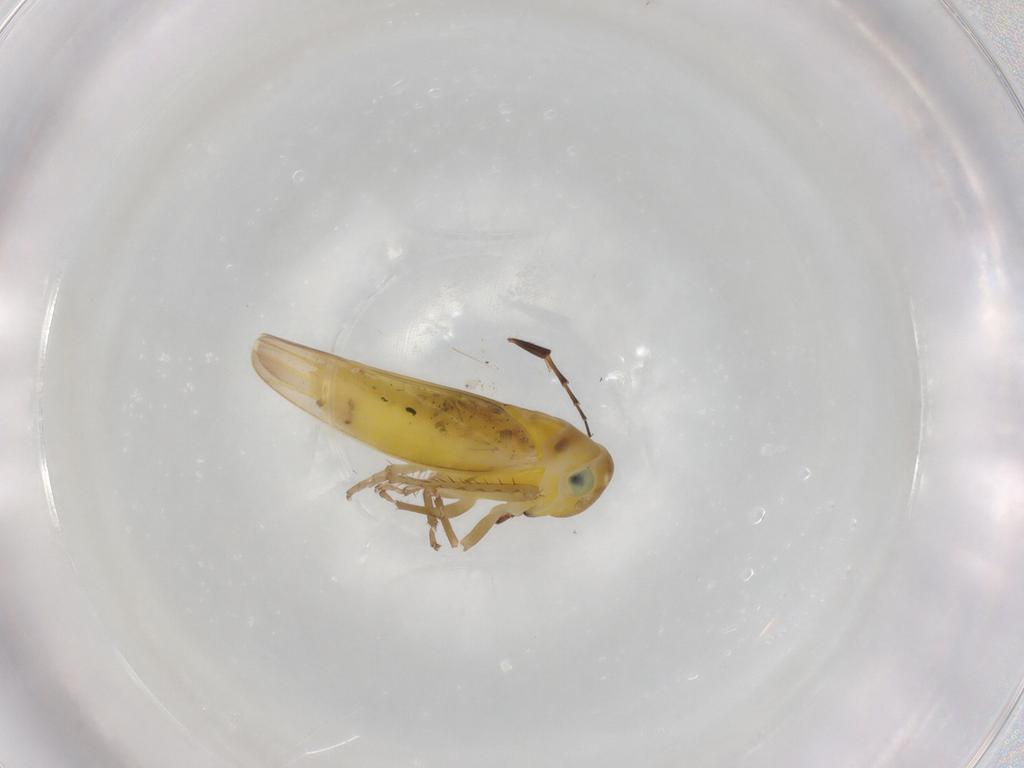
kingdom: Animalia
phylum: Arthropoda
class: Insecta
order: Hemiptera
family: Cicadellidae
